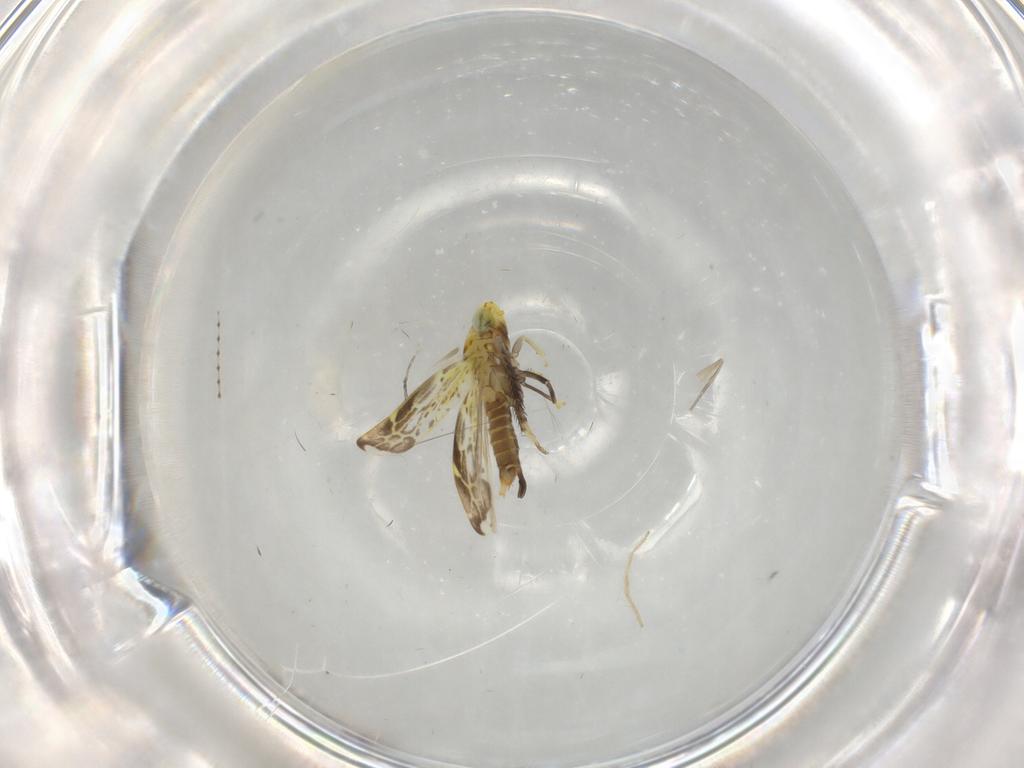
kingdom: Animalia
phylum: Arthropoda
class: Insecta
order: Hemiptera
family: Cicadellidae
